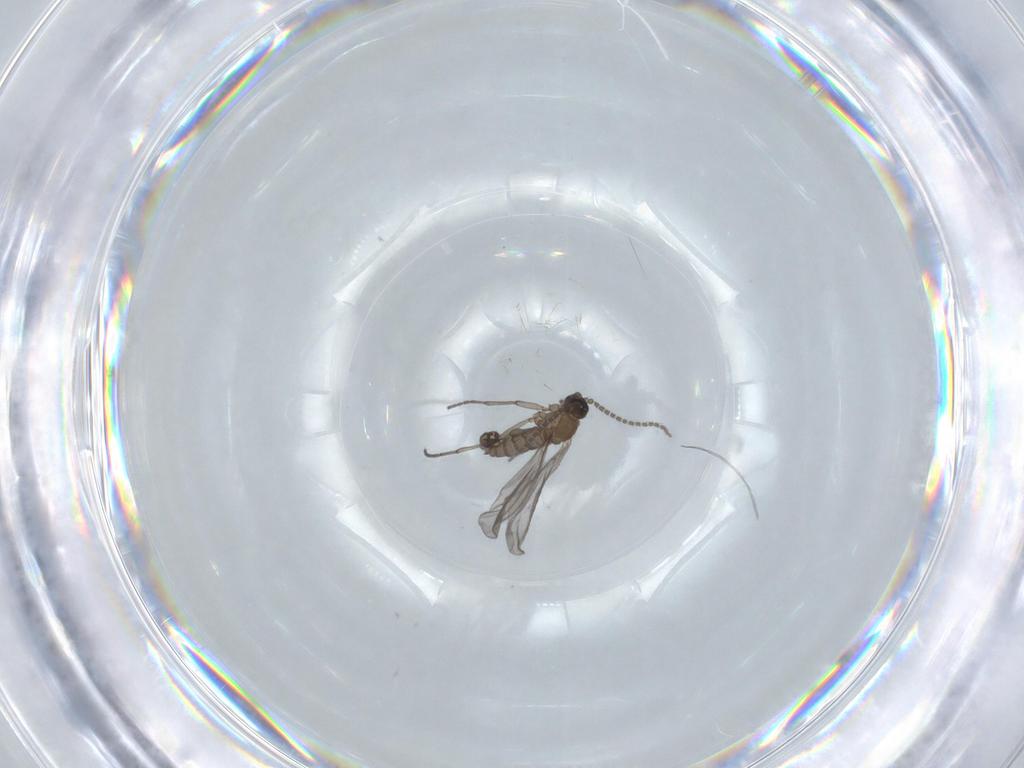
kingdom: Animalia
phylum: Arthropoda
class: Insecta
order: Diptera
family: Sciaridae
